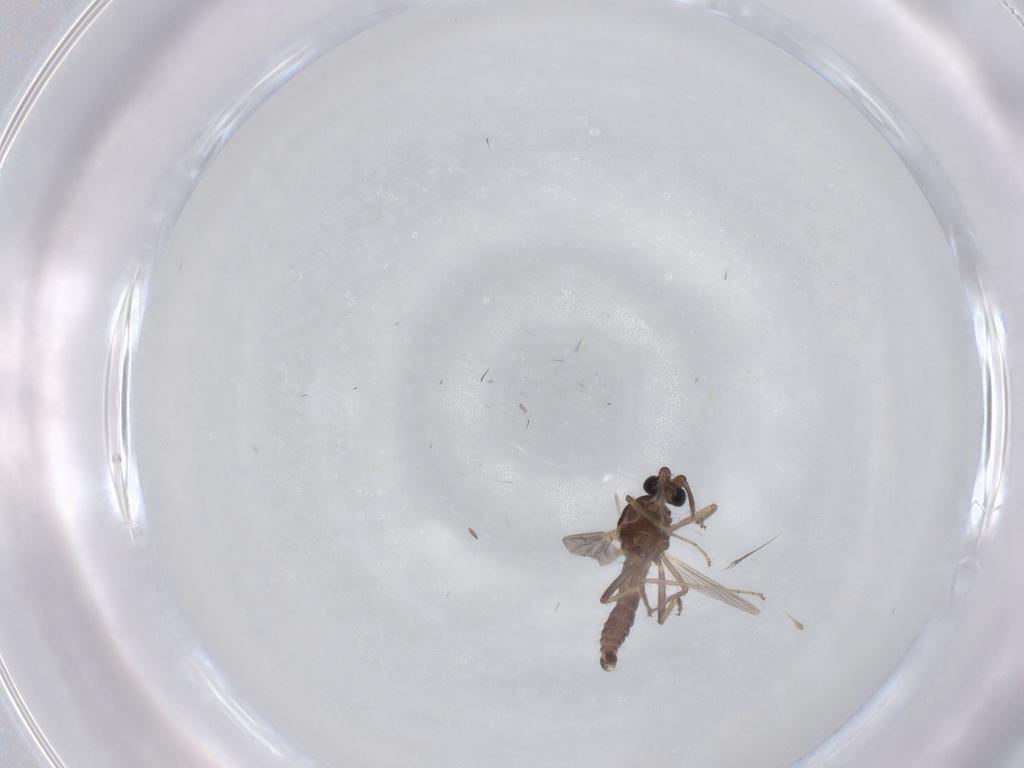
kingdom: Animalia
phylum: Arthropoda
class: Insecta
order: Diptera
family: Ceratopogonidae
